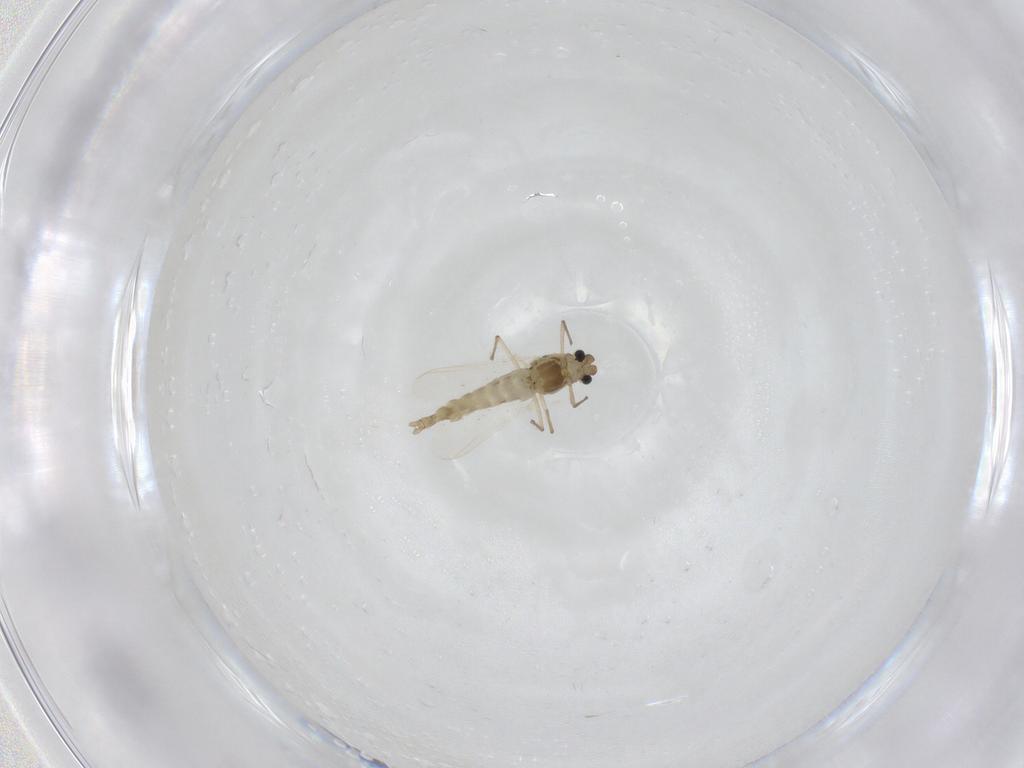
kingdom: Animalia
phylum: Arthropoda
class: Insecta
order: Diptera
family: Chironomidae
